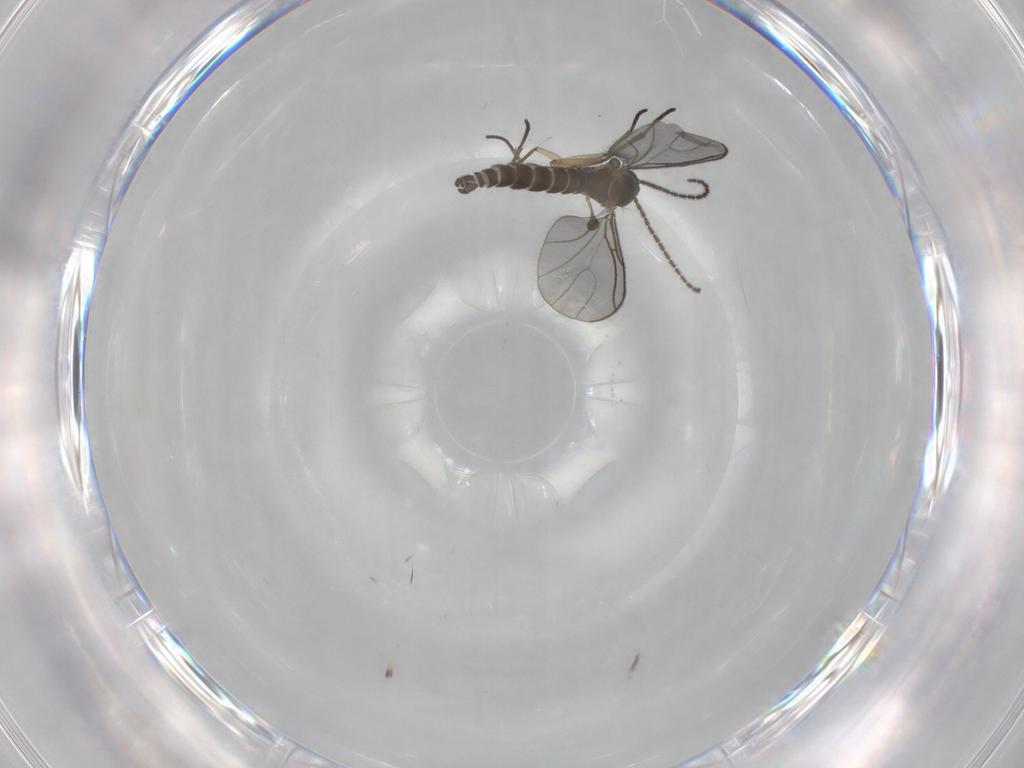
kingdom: Animalia
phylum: Arthropoda
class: Insecta
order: Diptera
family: Sciaridae
